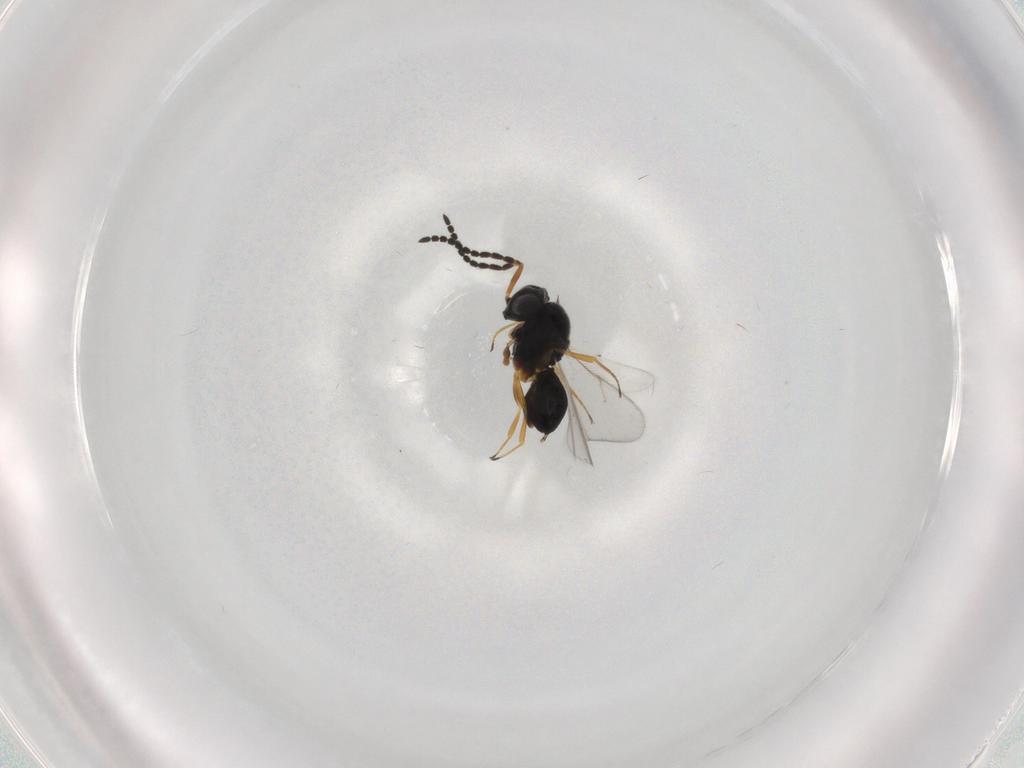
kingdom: Animalia
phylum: Arthropoda
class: Insecta
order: Hymenoptera
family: Scelionidae
